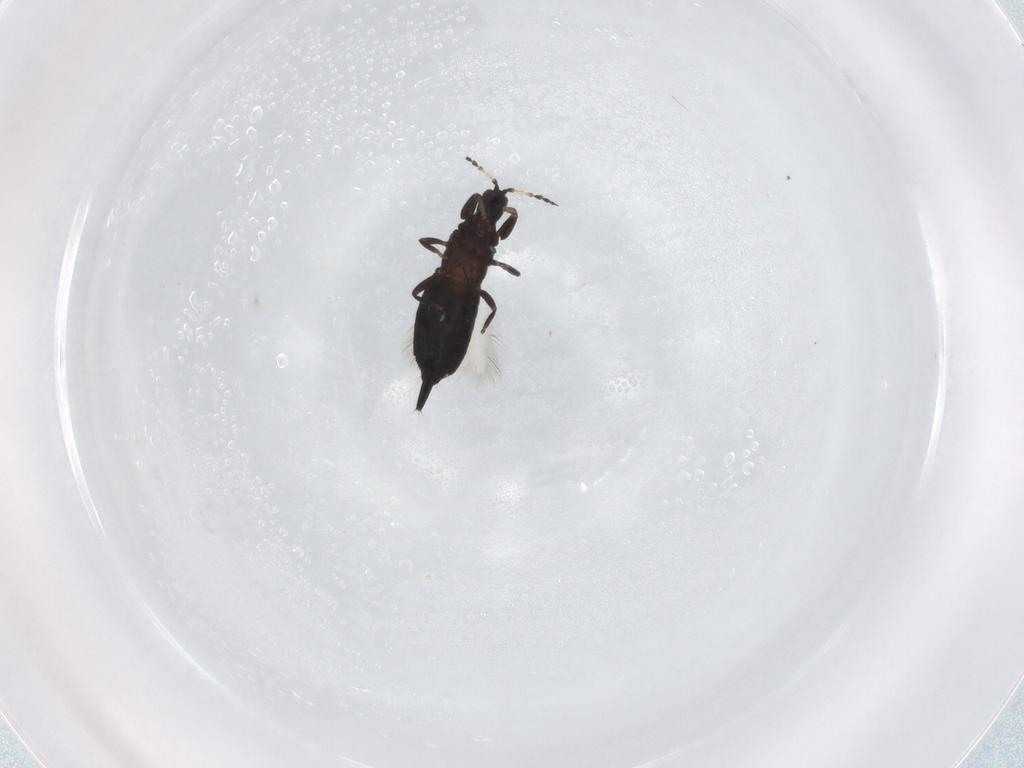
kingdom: Animalia
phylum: Arthropoda
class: Insecta
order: Thysanoptera
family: Phlaeothripidae
